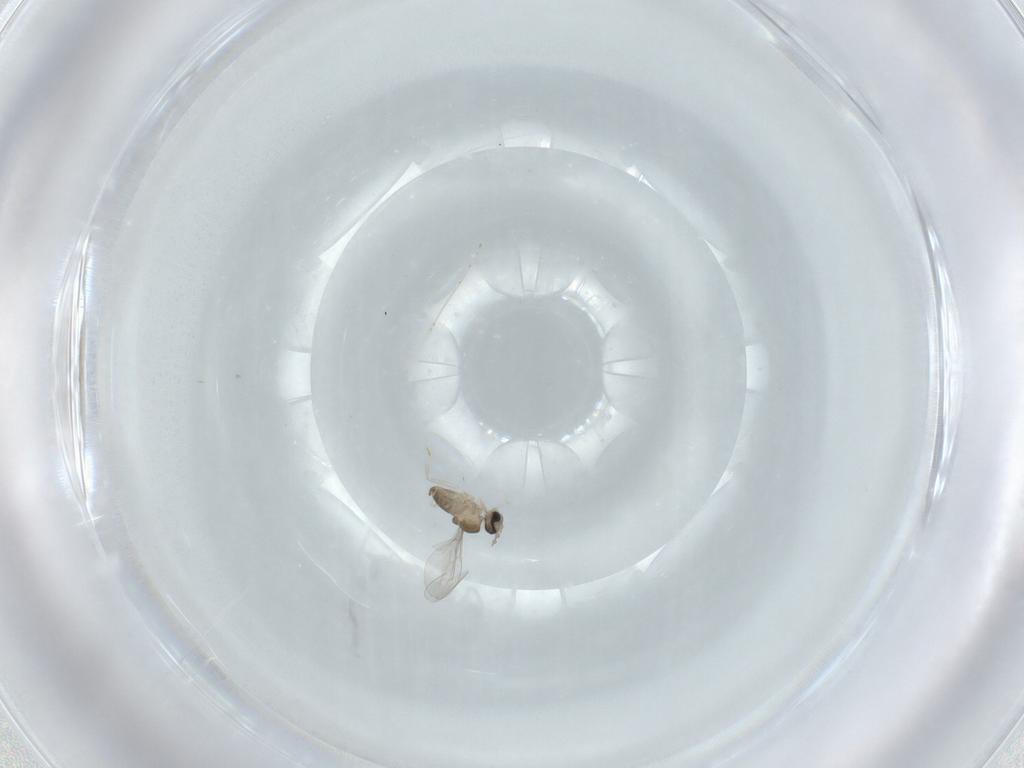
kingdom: Animalia
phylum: Arthropoda
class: Insecta
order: Diptera
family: Cecidomyiidae
